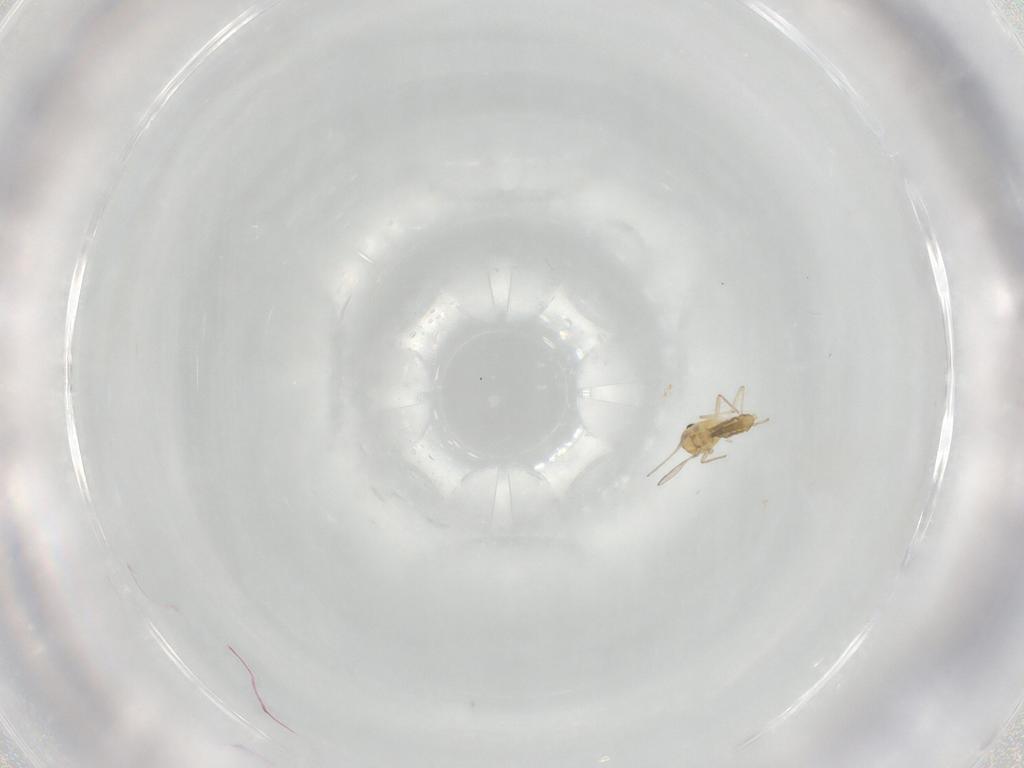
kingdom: Animalia
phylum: Arthropoda
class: Insecta
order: Diptera
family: Chironomidae
